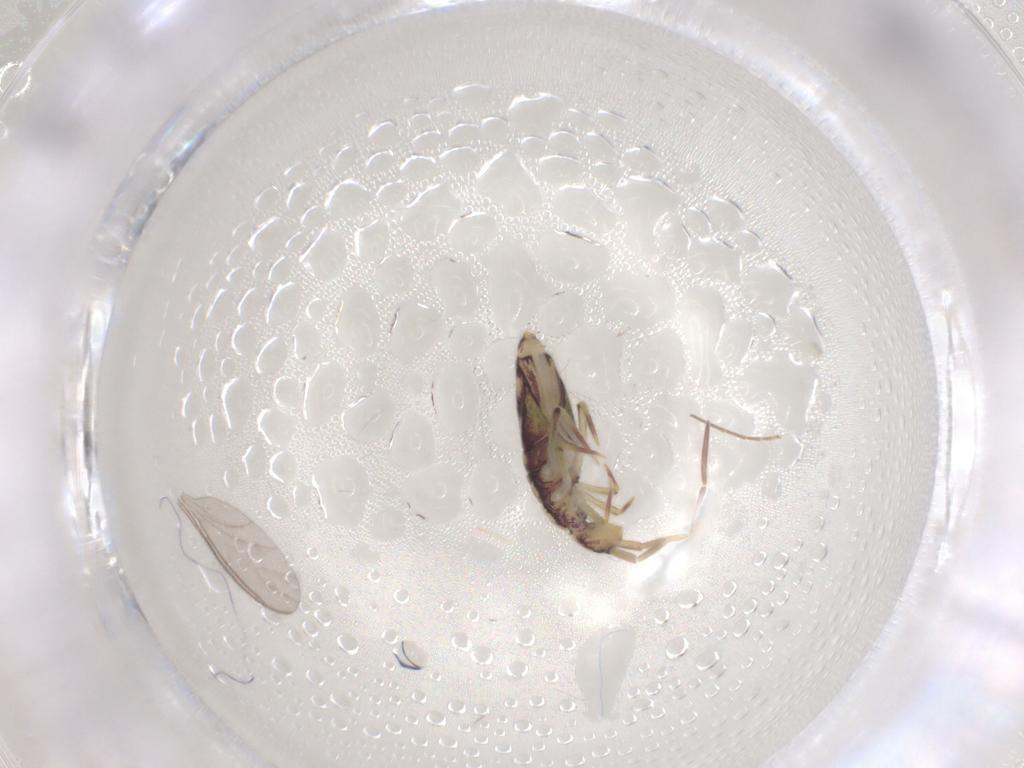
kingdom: Animalia
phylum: Arthropoda
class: Collembola
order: Entomobryomorpha
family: Entomobryidae
